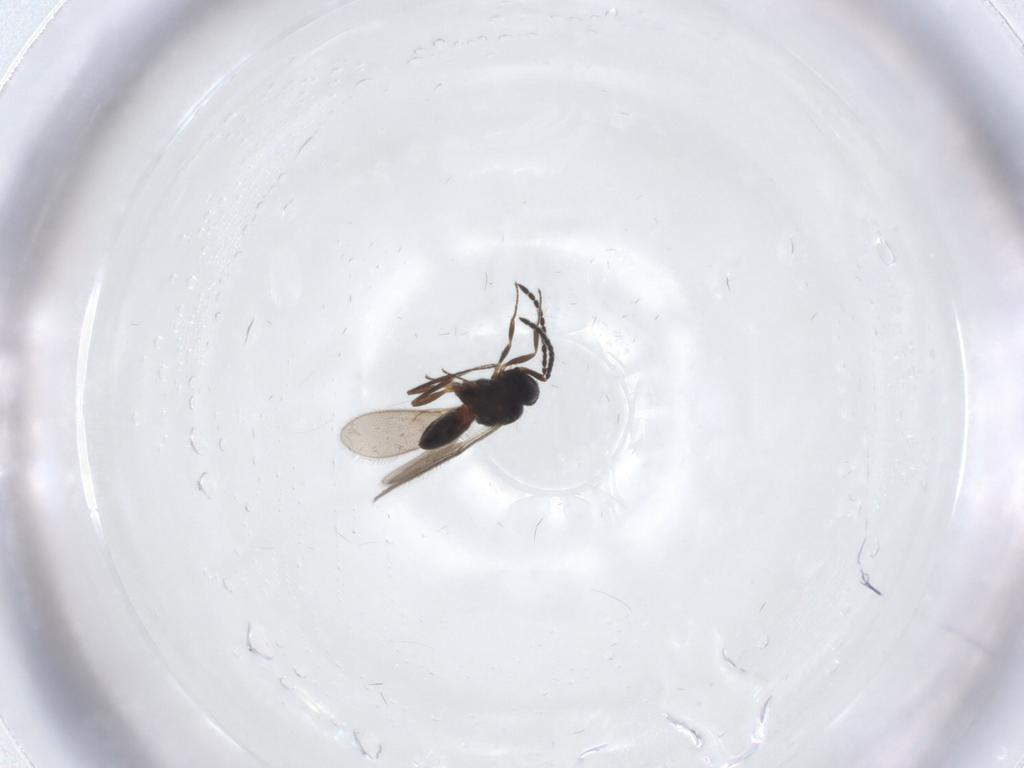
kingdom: Animalia
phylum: Arthropoda
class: Insecta
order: Hymenoptera
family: Scelionidae
